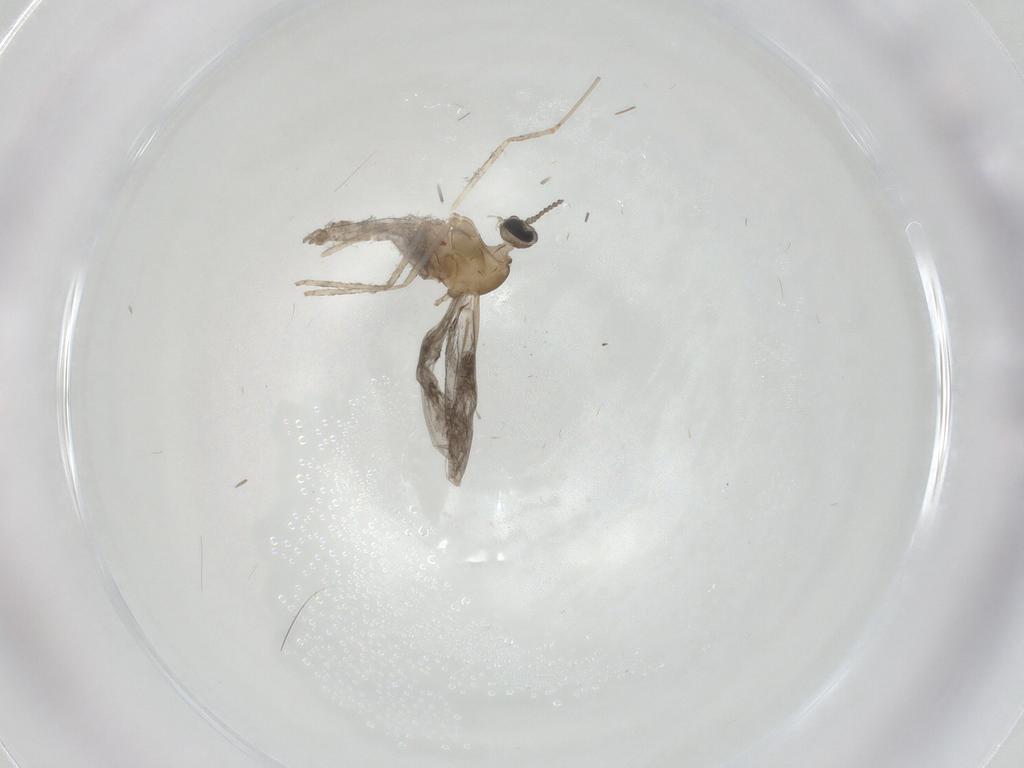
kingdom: Animalia
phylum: Arthropoda
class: Insecta
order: Diptera
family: Chironomidae
